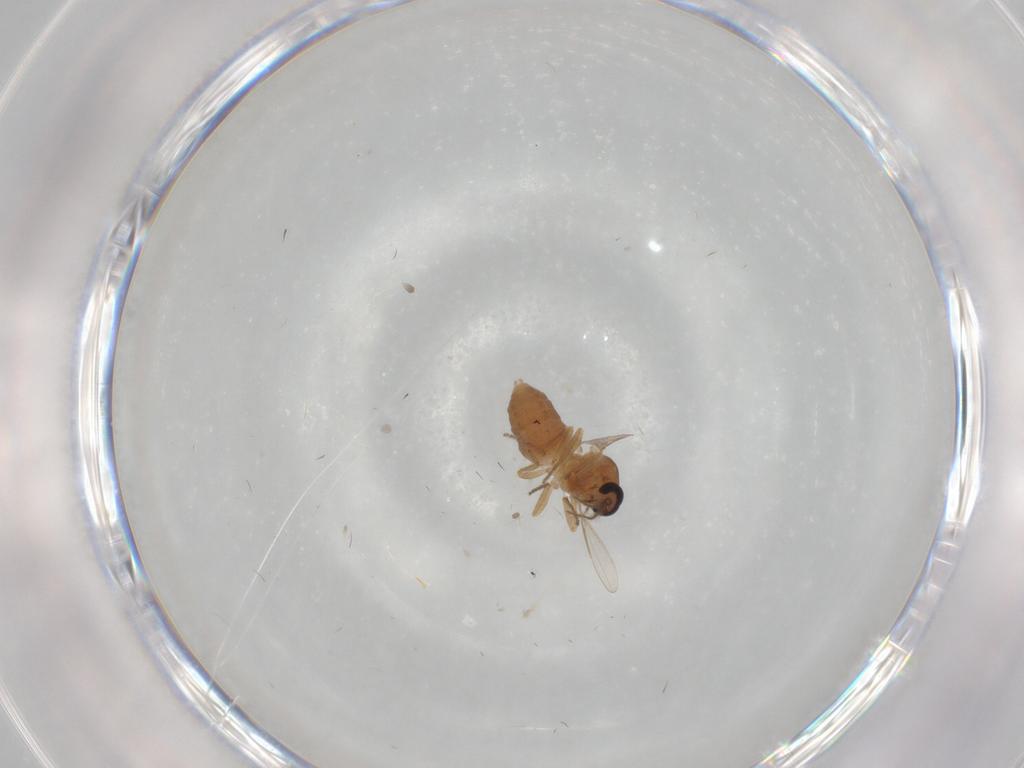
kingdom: Animalia
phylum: Arthropoda
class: Insecta
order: Diptera
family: Ceratopogonidae
